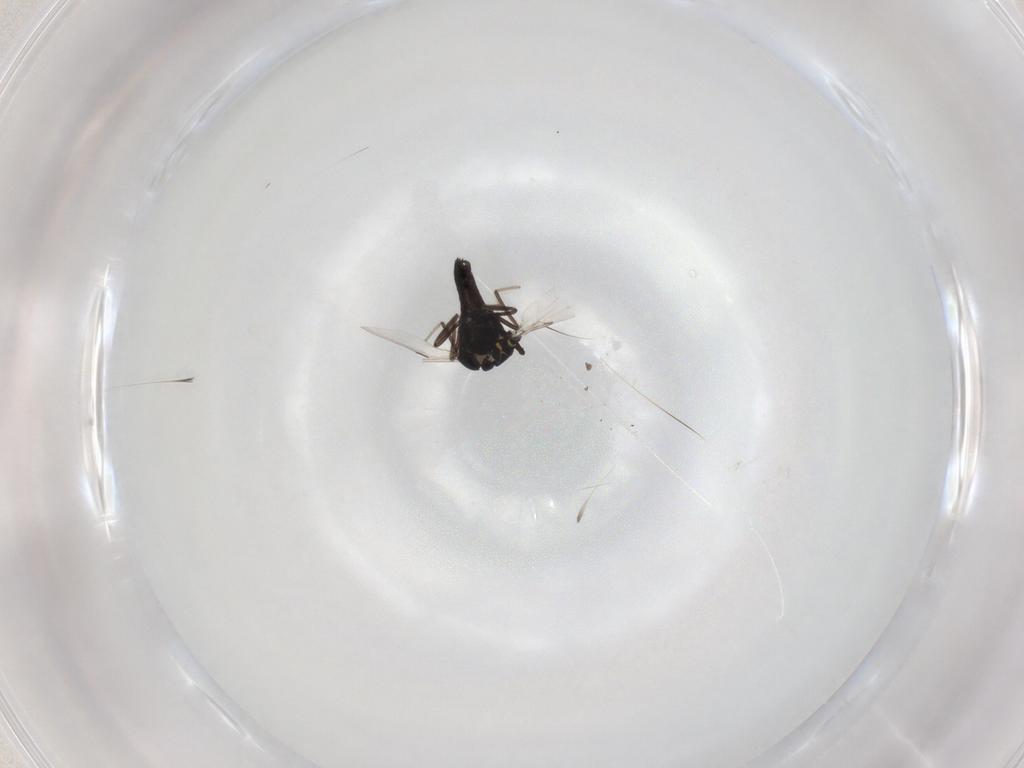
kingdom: Animalia
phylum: Arthropoda
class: Insecta
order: Diptera
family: Ceratopogonidae
